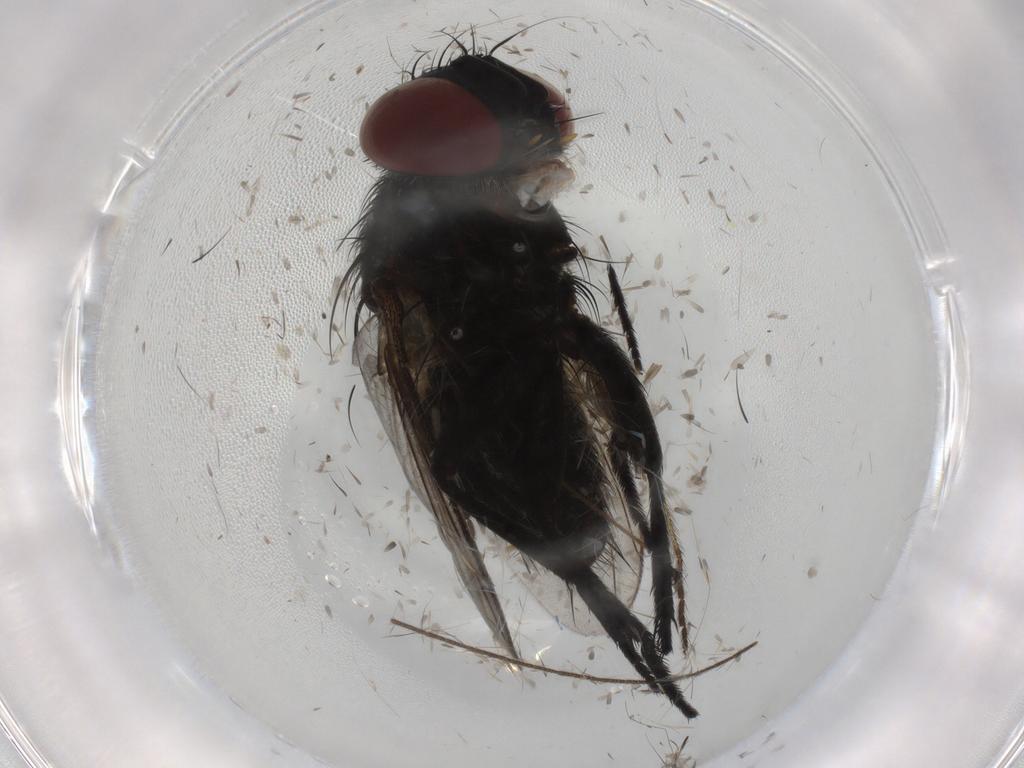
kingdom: Animalia
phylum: Arthropoda
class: Insecta
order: Diptera
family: Tachinidae
